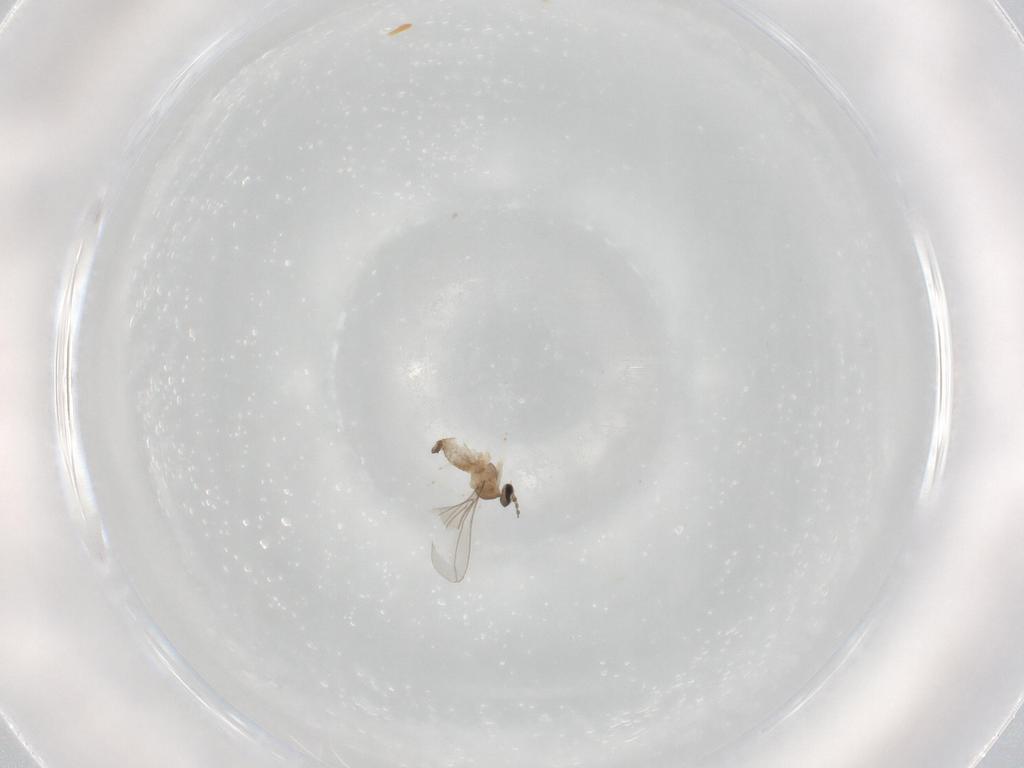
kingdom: Animalia
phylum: Arthropoda
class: Insecta
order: Diptera
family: Cecidomyiidae
